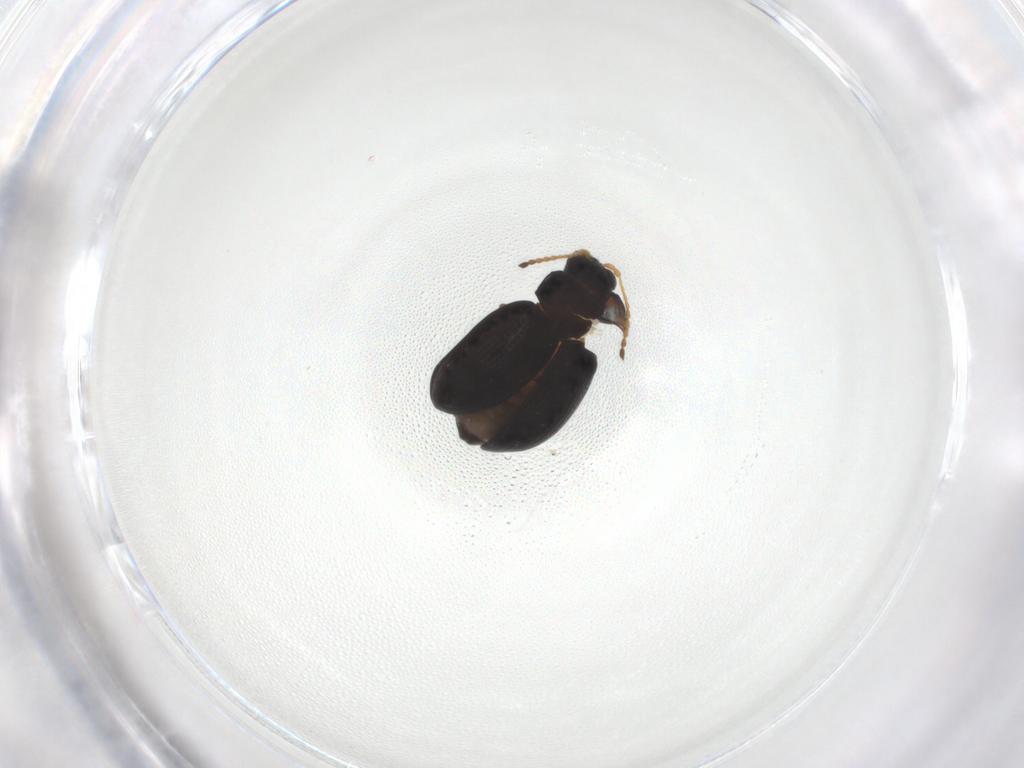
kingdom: Animalia
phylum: Arthropoda
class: Insecta
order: Coleoptera
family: Chrysomelidae
